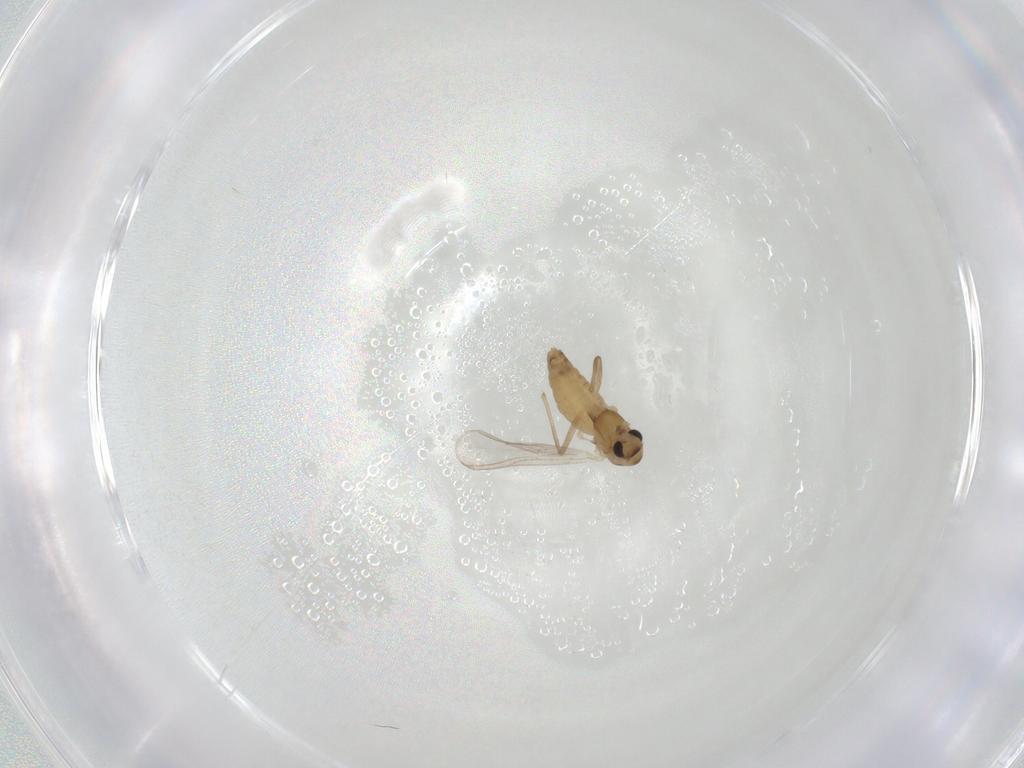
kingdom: Animalia
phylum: Arthropoda
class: Insecta
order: Diptera
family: Chironomidae
